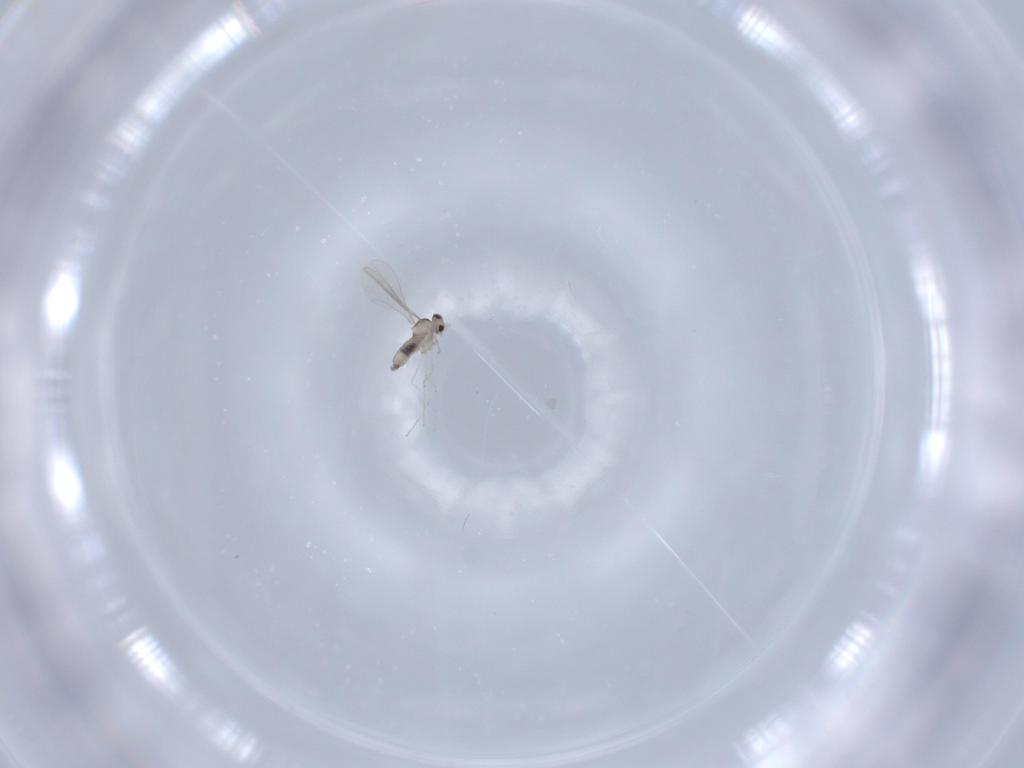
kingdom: Animalia
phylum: Arthropoda
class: Insecta
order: Diptera
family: Cecidomyiidae
